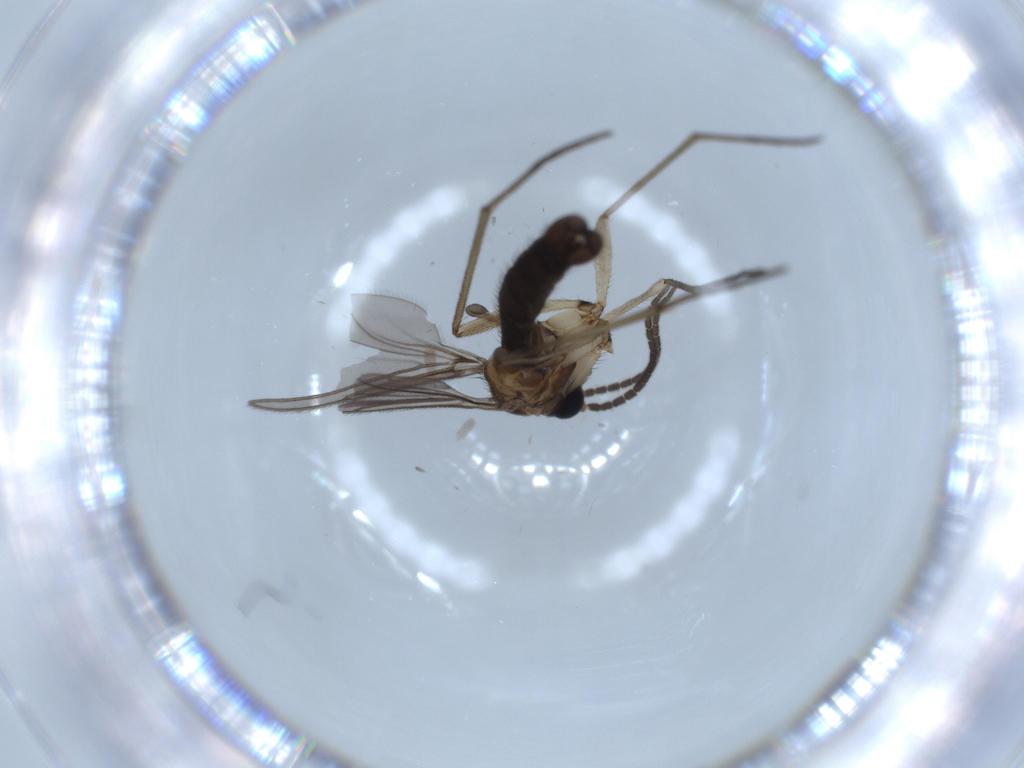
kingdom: Animalia
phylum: Arthropoda
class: Insecta
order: Diptera
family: Sciaridae
